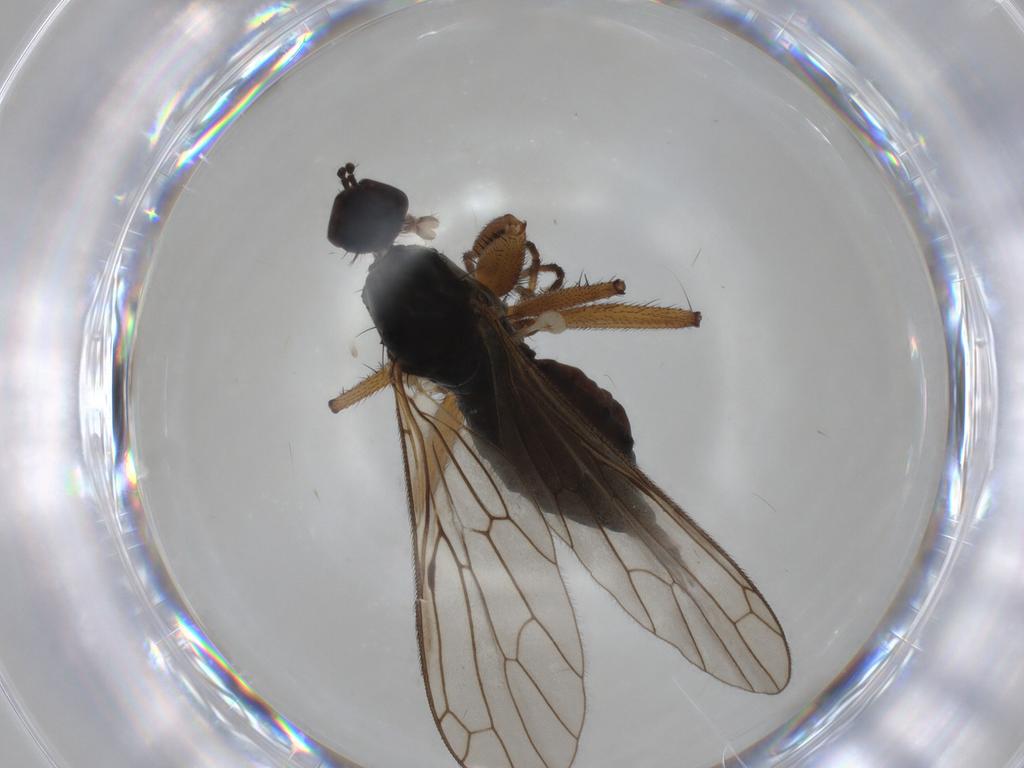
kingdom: Animalia
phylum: Arthropoda
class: Insecta
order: Diptera
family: Empididae
